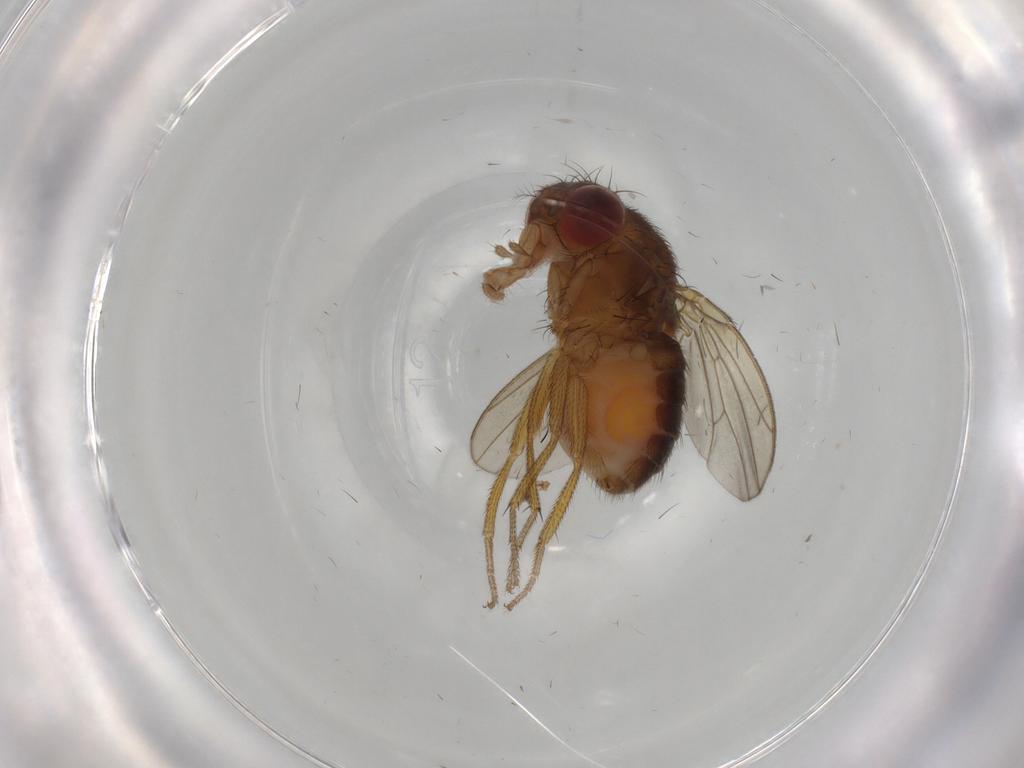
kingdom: Animalia
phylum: Arthropoda
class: Insecta
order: Diptera
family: Drosophilidae
